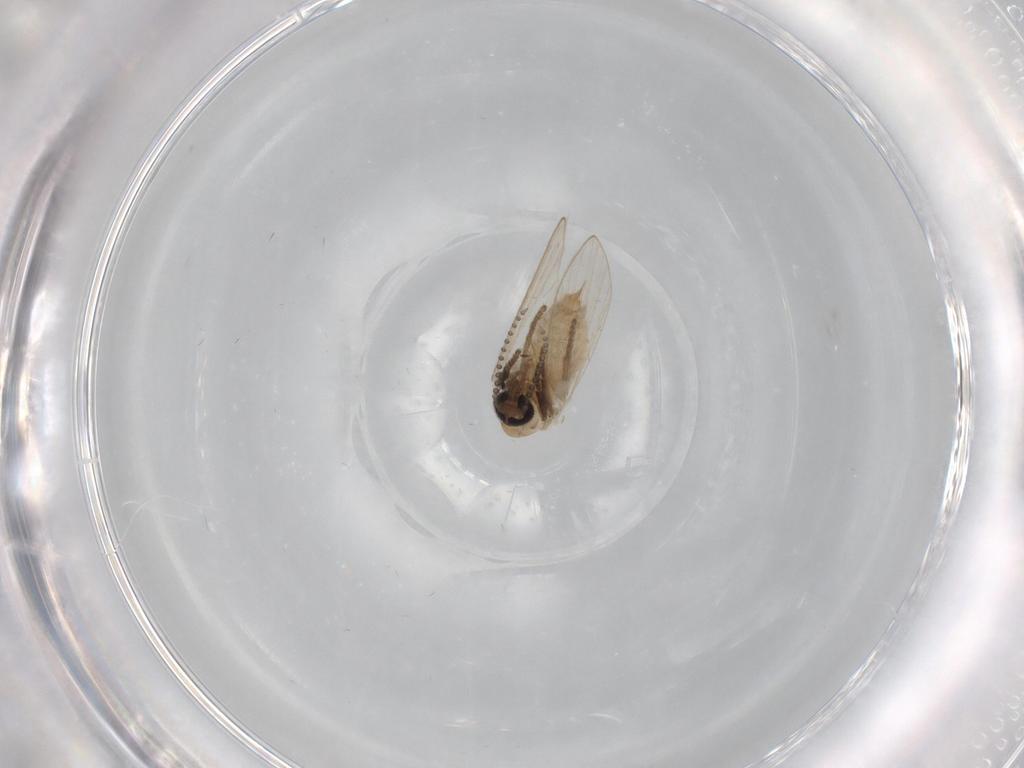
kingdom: Animalia
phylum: Arthropoda
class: Insecta
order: Diptera
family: Psychodidae
